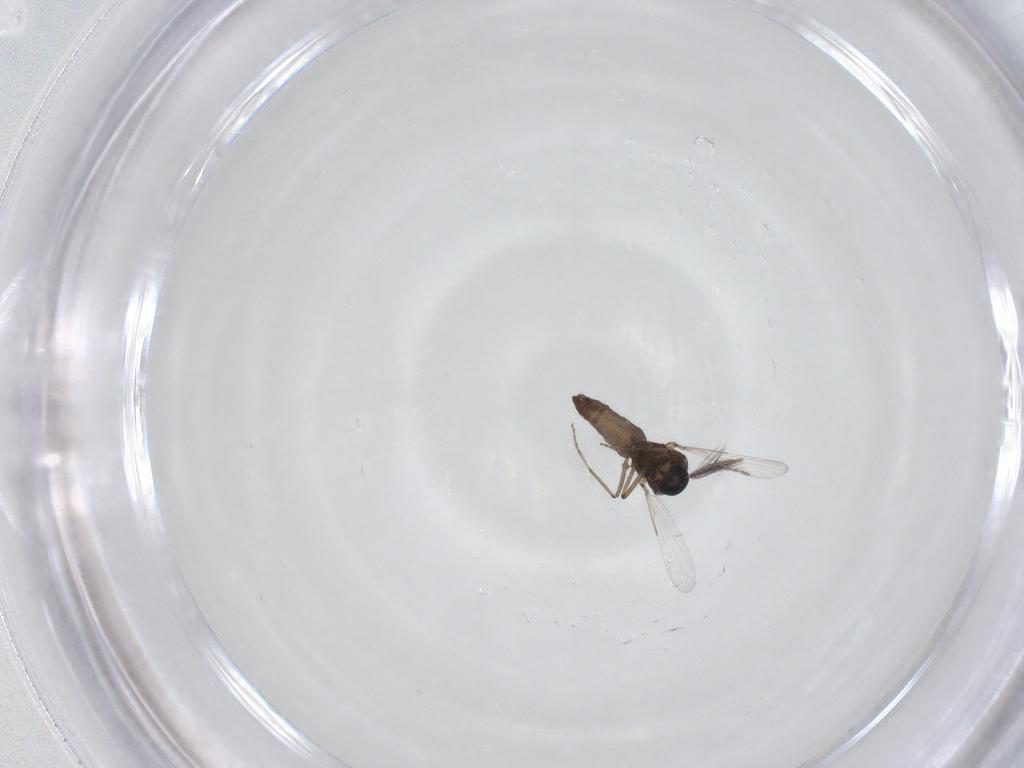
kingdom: Animalia
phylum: Arthropoda
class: Insecta
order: Diptera
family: Ceratopogonidae
